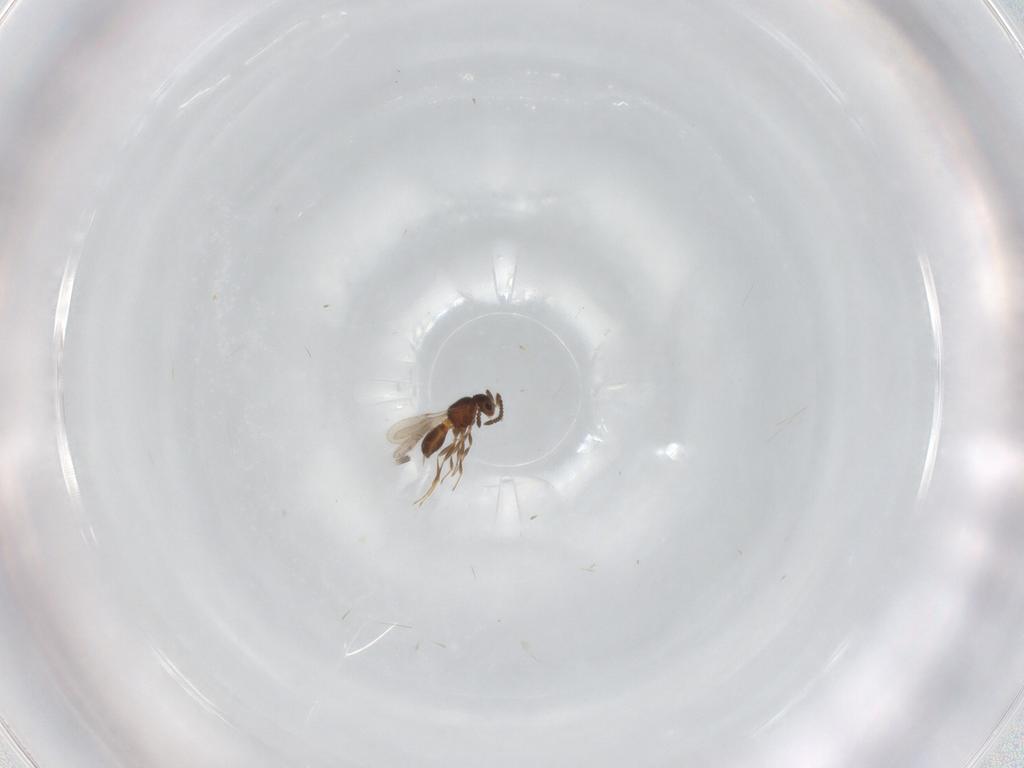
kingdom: Animalia
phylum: Arthropoda
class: Insecta
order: Hymenoptera
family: Scelionidae
